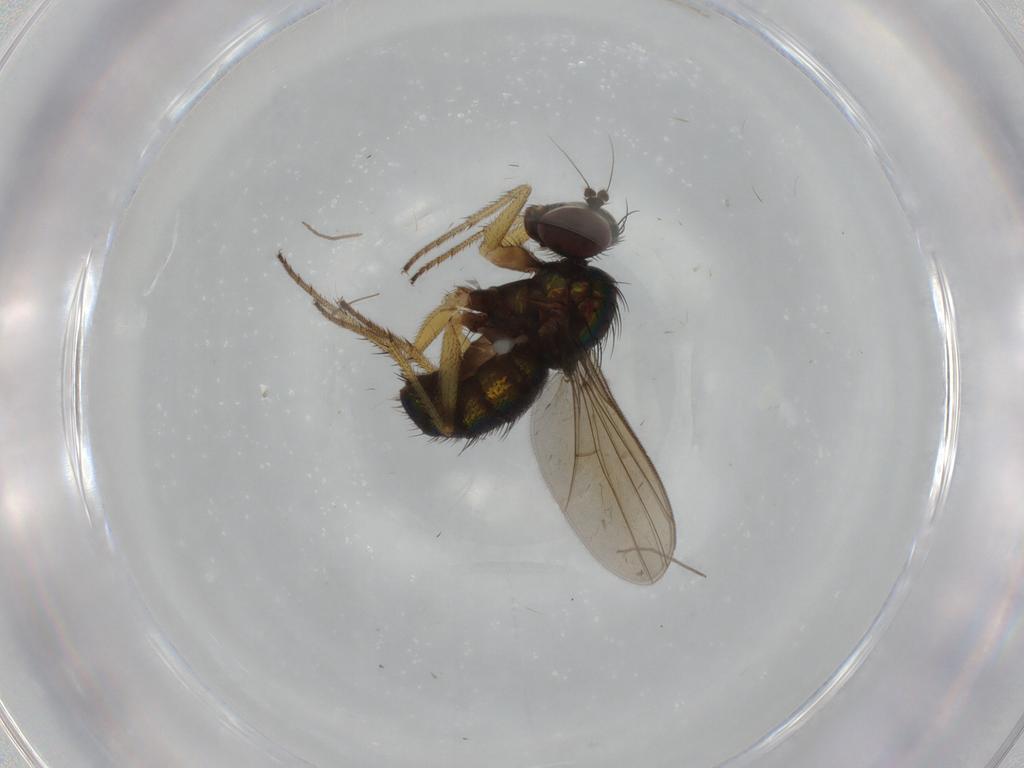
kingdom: Animalia
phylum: Arthropoda
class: Insecta
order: Diptera
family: Dolichopodidae
